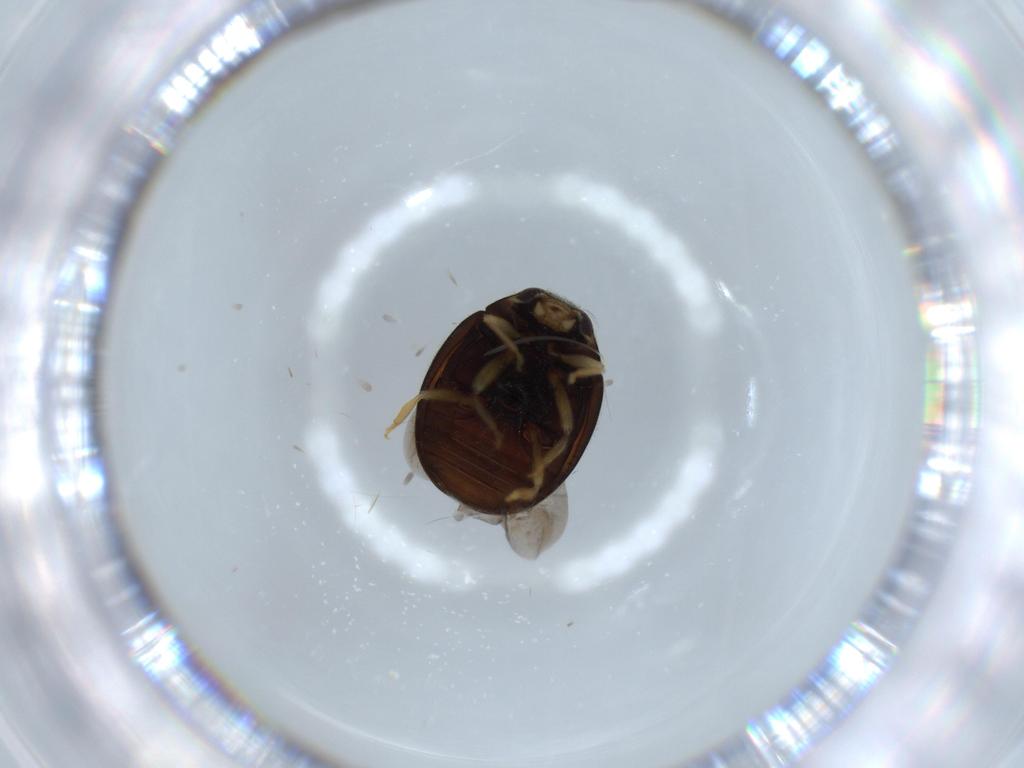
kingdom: Animalia
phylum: Arthropoda
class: Insecta
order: Coleoptera
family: Coccinellidae
